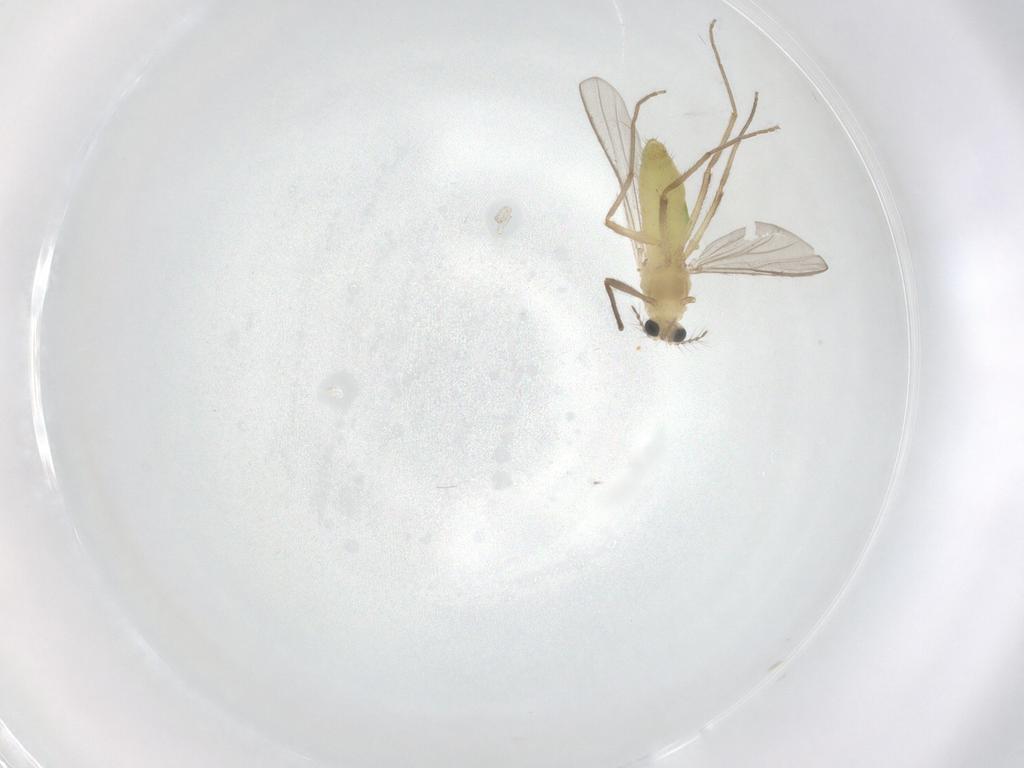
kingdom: Animalia
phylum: Arthropoda
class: Insecta
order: Diptera
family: Chironomidae
